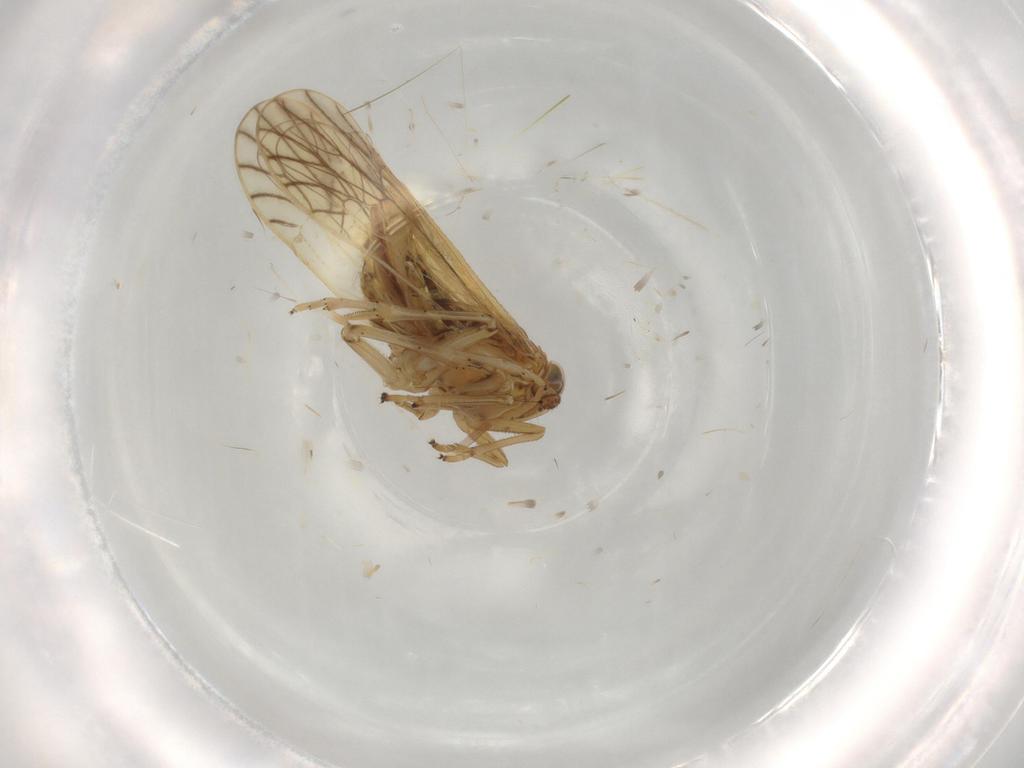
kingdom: Animalia
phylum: Arthropoda
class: Insecta
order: Hemiptera
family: Delphacidae
